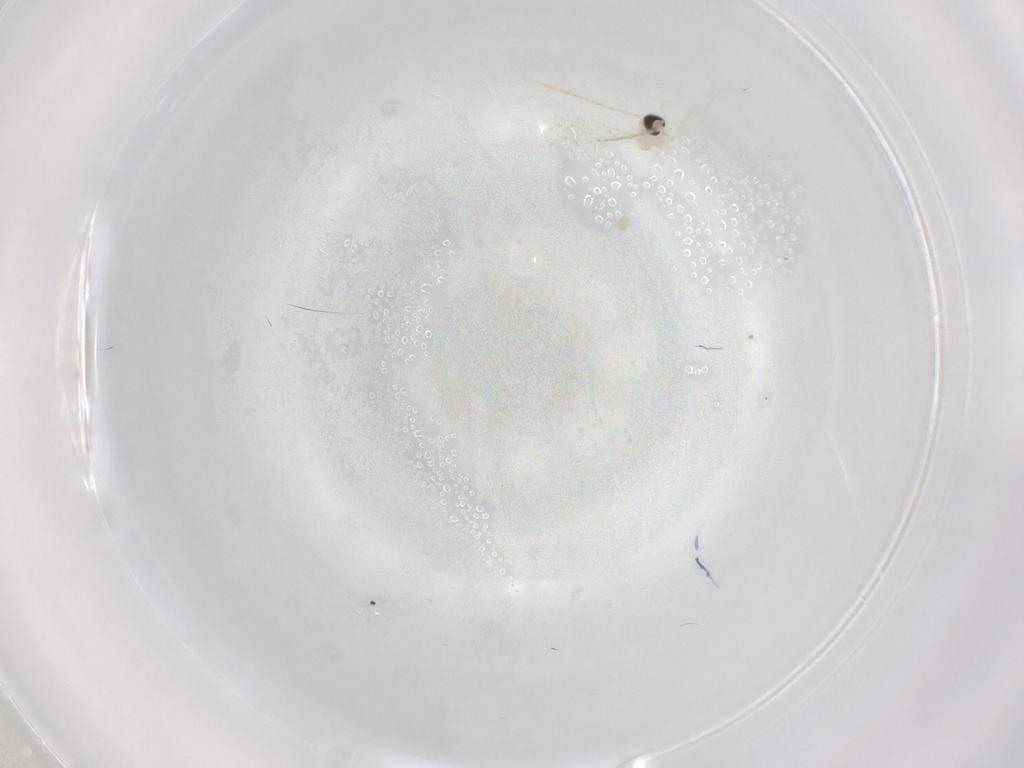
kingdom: Animalia
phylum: Arthropoda
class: Insecta
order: Diptera
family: Cecidomyiidae
